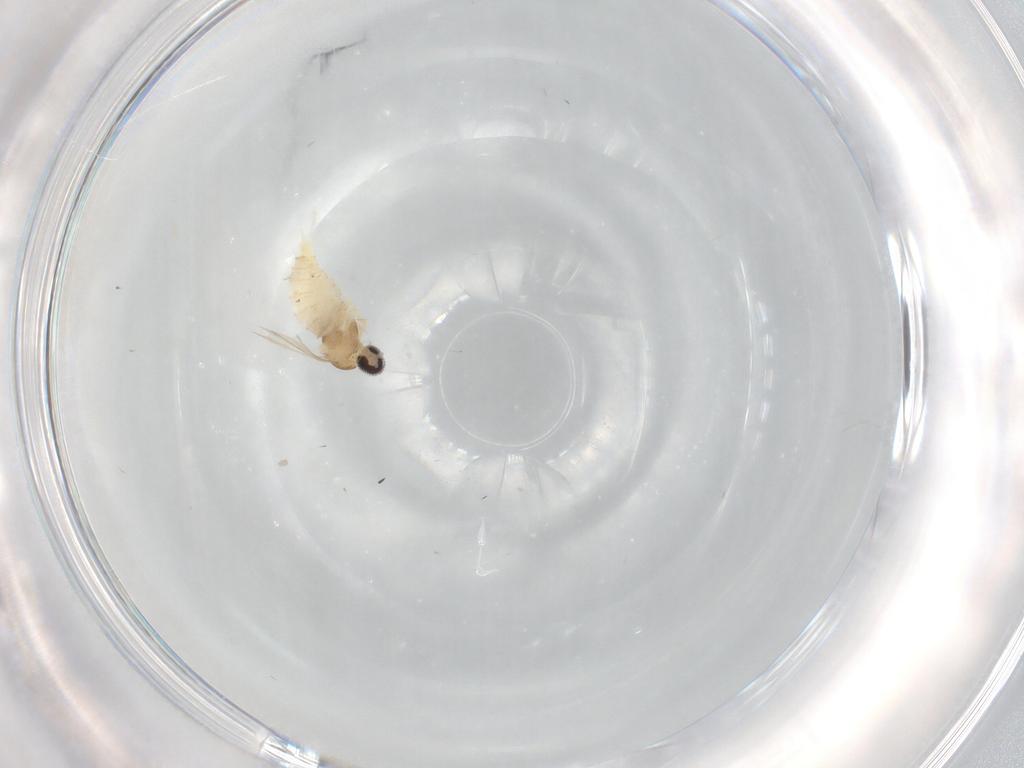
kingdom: Animalia
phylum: Arthropoda
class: Insecta
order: Diptera
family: Cecidomyiidae
